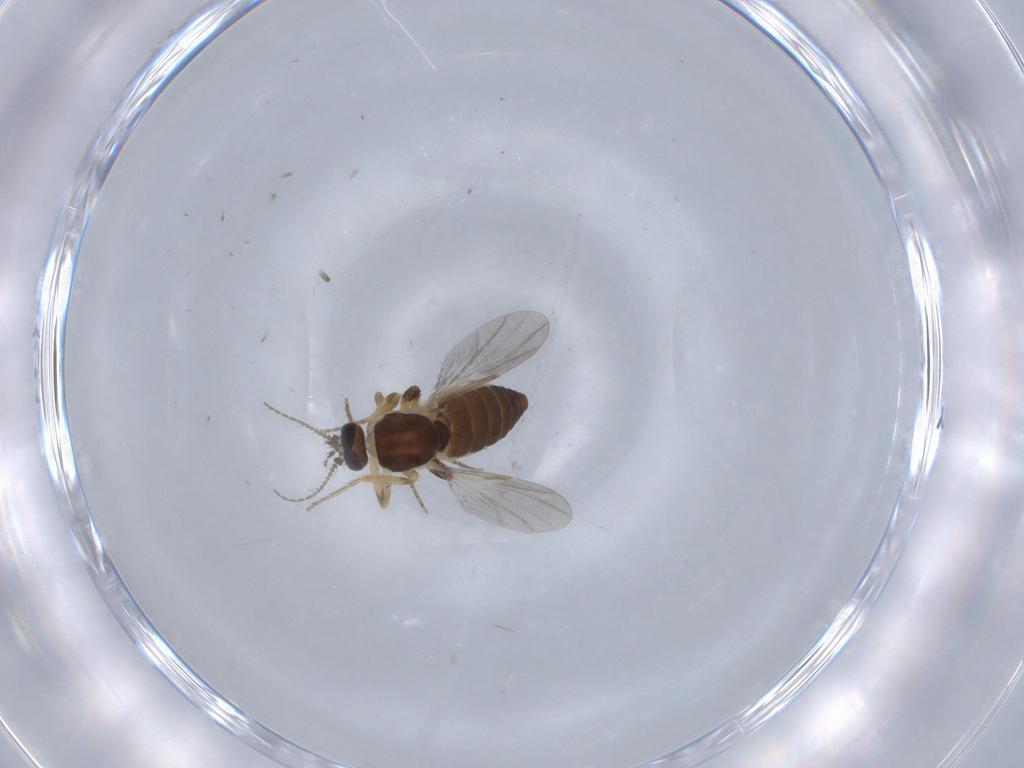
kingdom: Animalia
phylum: Arthropoda
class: Insecta
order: Diptera
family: Ceratopogonidae
